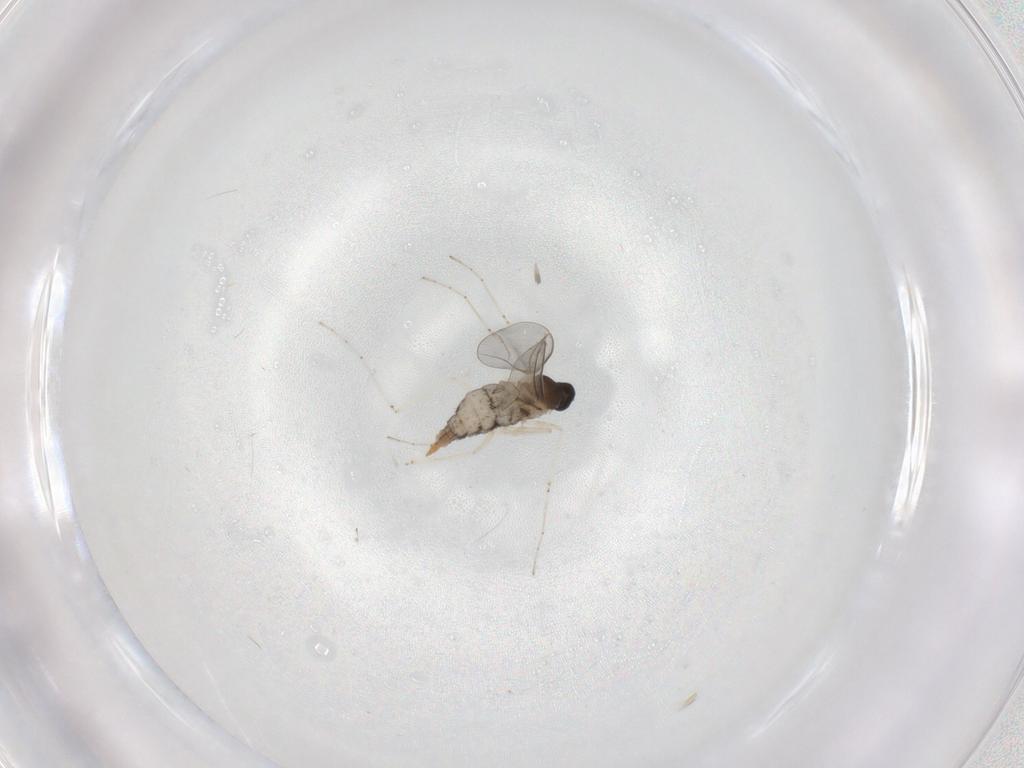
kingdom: Animalia
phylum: Arthropoda
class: Insecta
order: Diptera
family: Cecidomyiidae
